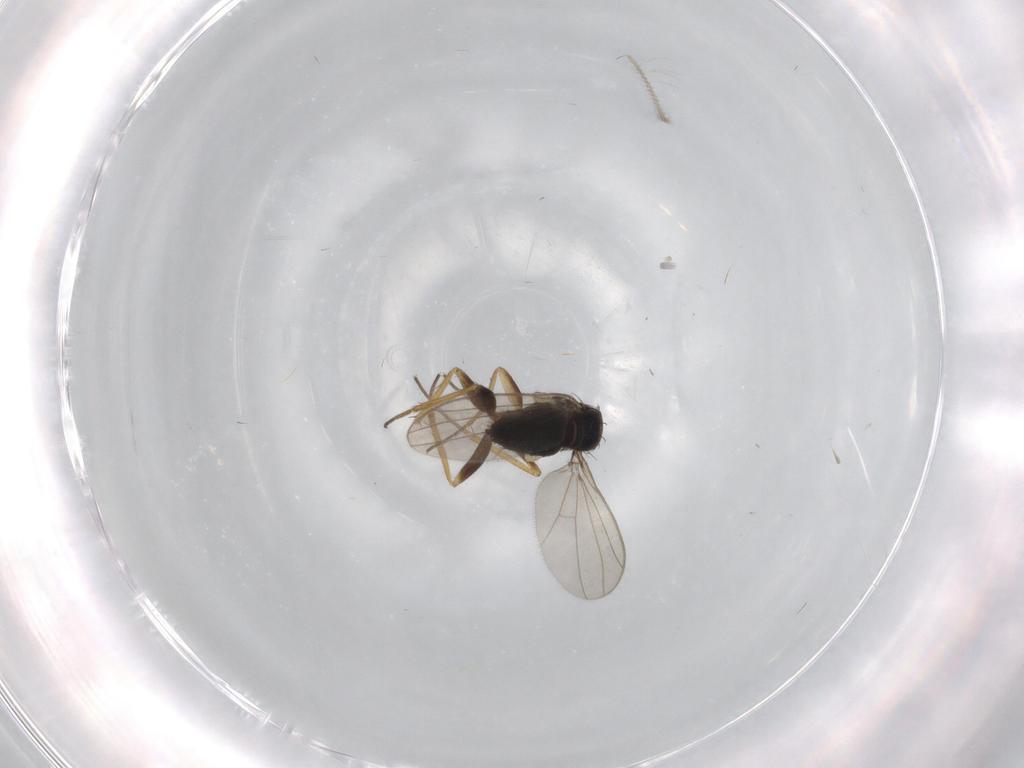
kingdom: Animalia
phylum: Arthropoda
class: Insecta
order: Diptera
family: Dolichopodidae
